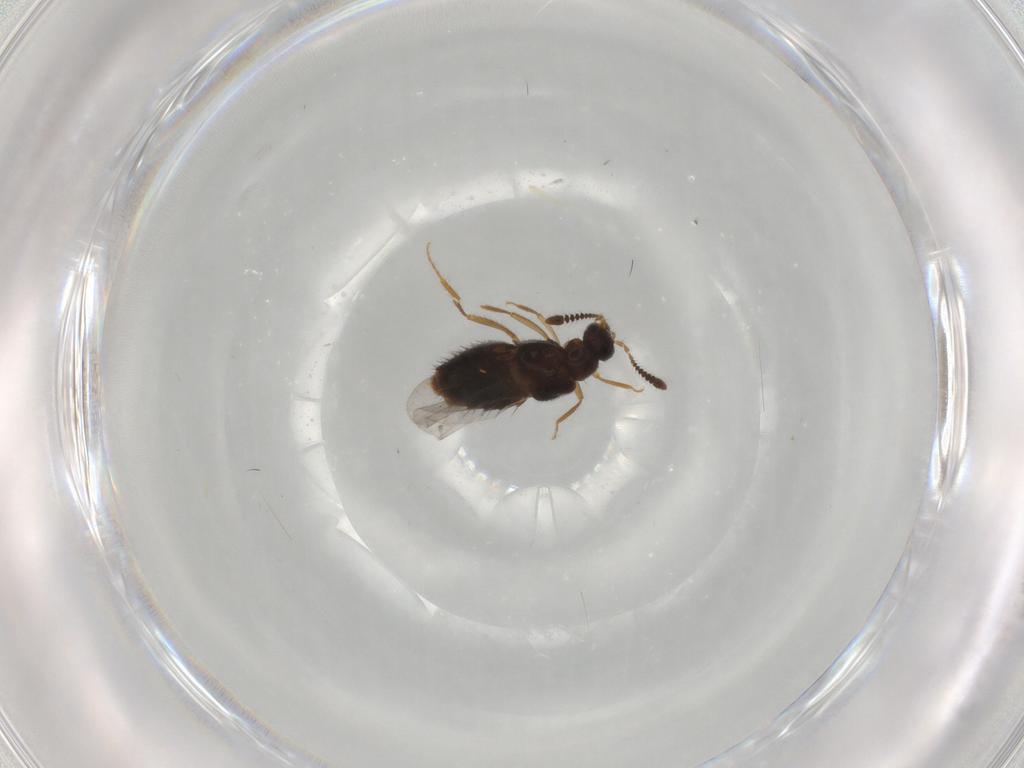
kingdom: Animalia
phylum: Arthropoda
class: Insecta
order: Coleoptera
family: Staphylinidae
